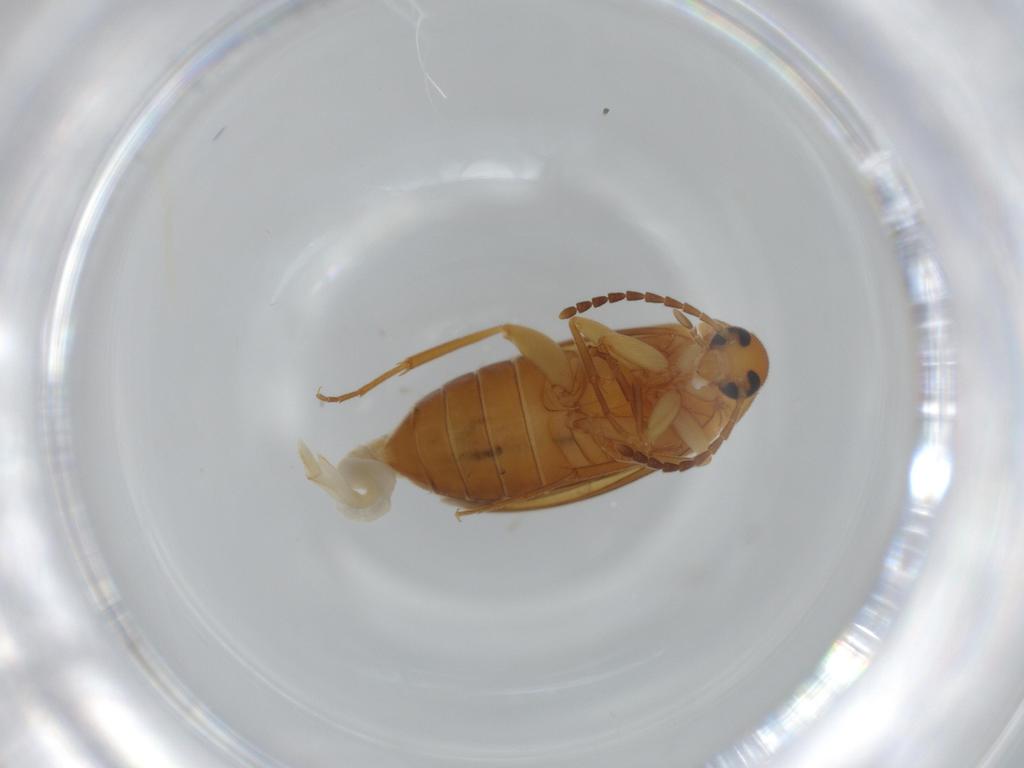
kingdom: Animalia
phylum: Arthropoda
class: Insecta
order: Coleoptera
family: Scraptiidae
